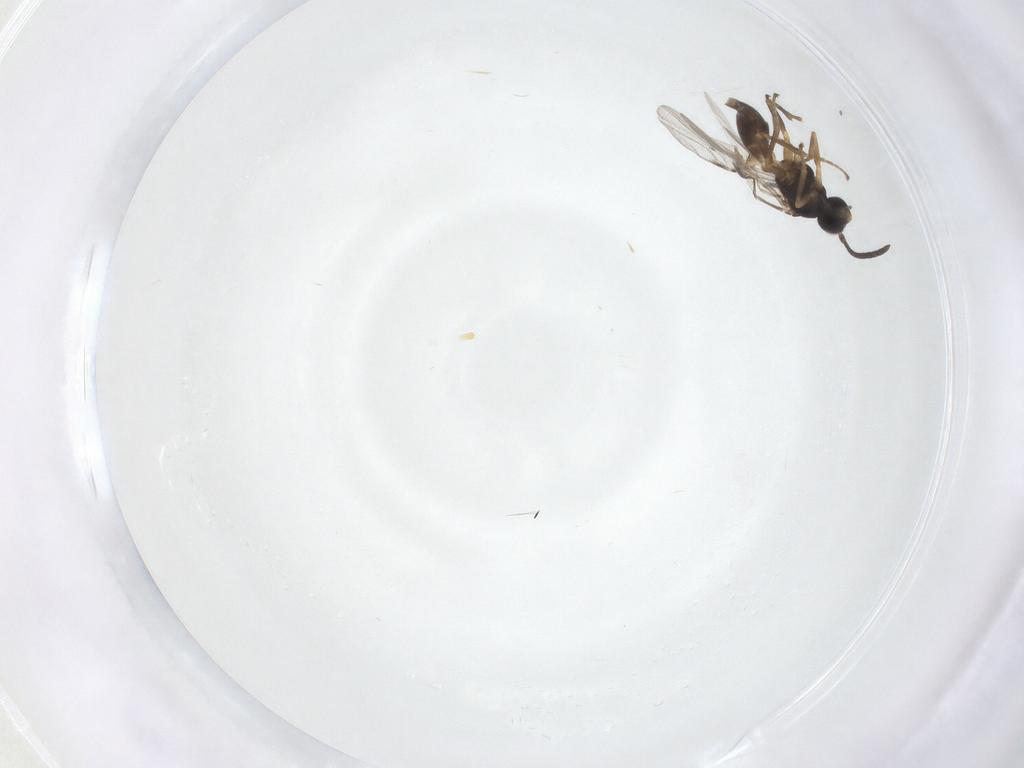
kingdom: Animalia
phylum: Arthropoda
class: Insecta
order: Hymenoptera
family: Braconidae
